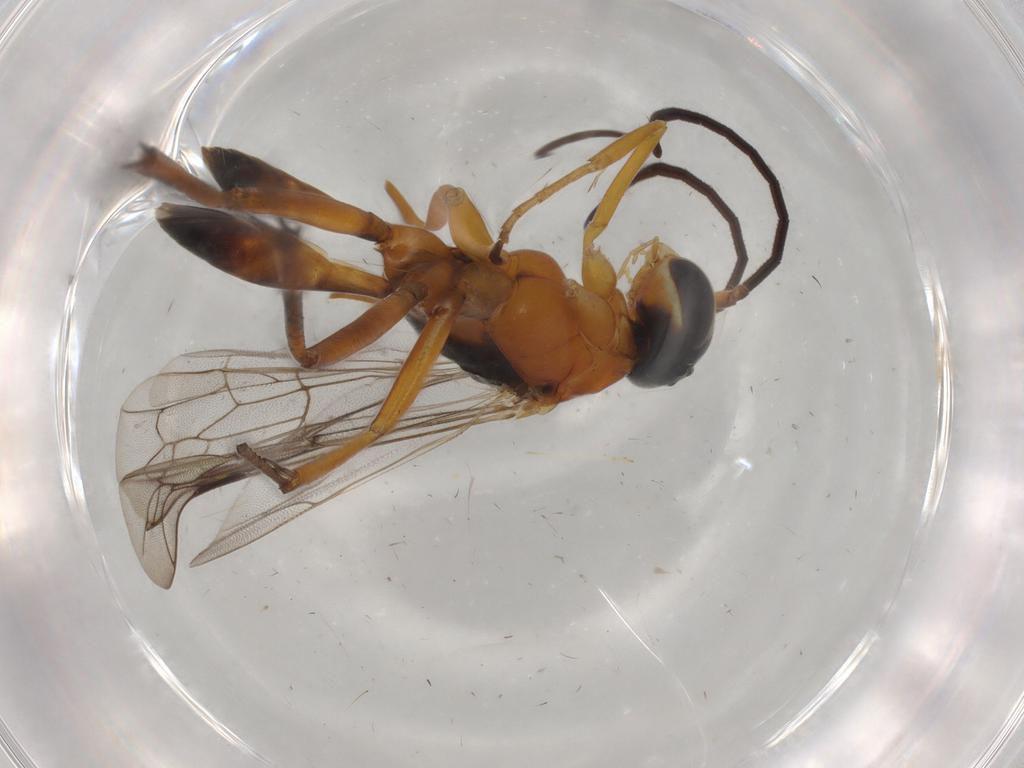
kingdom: Animalia
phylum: Arthropoda
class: Insecta
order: Hymenoptera
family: Pompilidae
